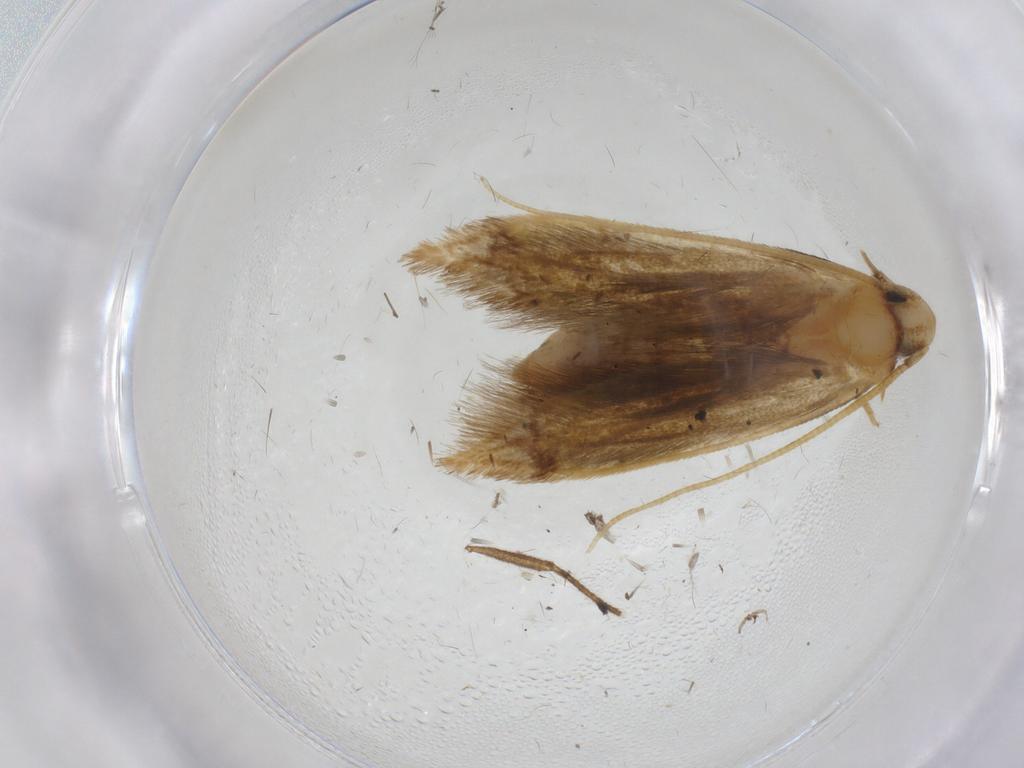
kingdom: Animalia
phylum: Arthropoda
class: Insecta
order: Lepidoptera
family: Tineidae
